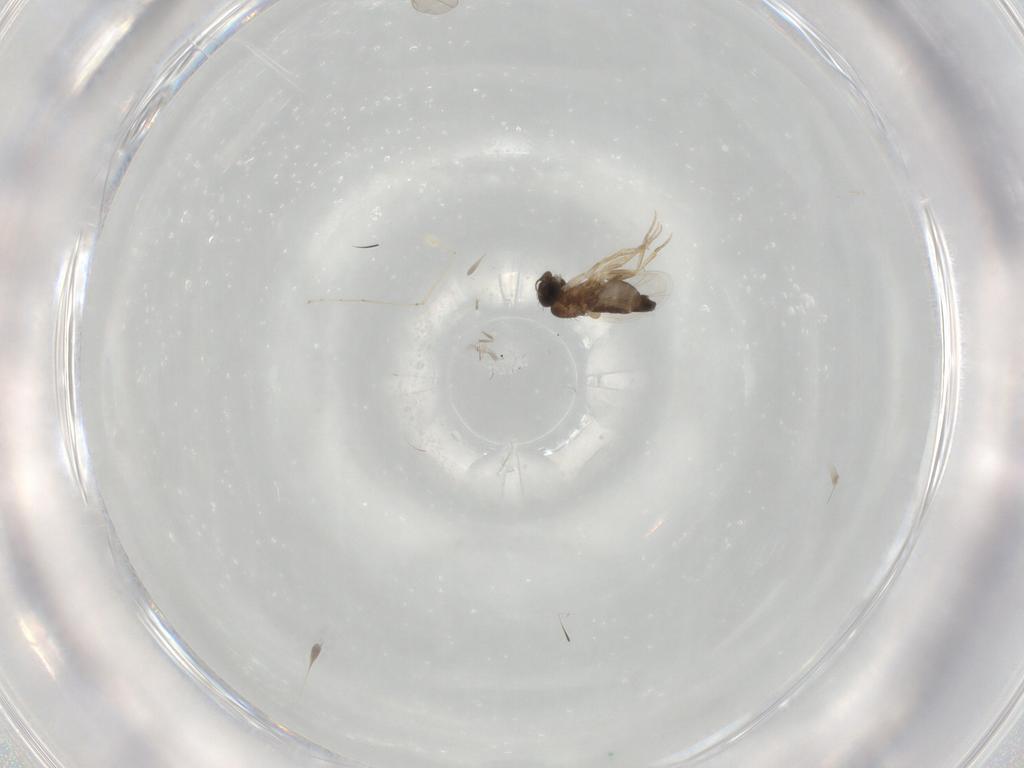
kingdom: Animalia
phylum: Arthropoda
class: Insecta
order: Diptera
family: Chironomidae
